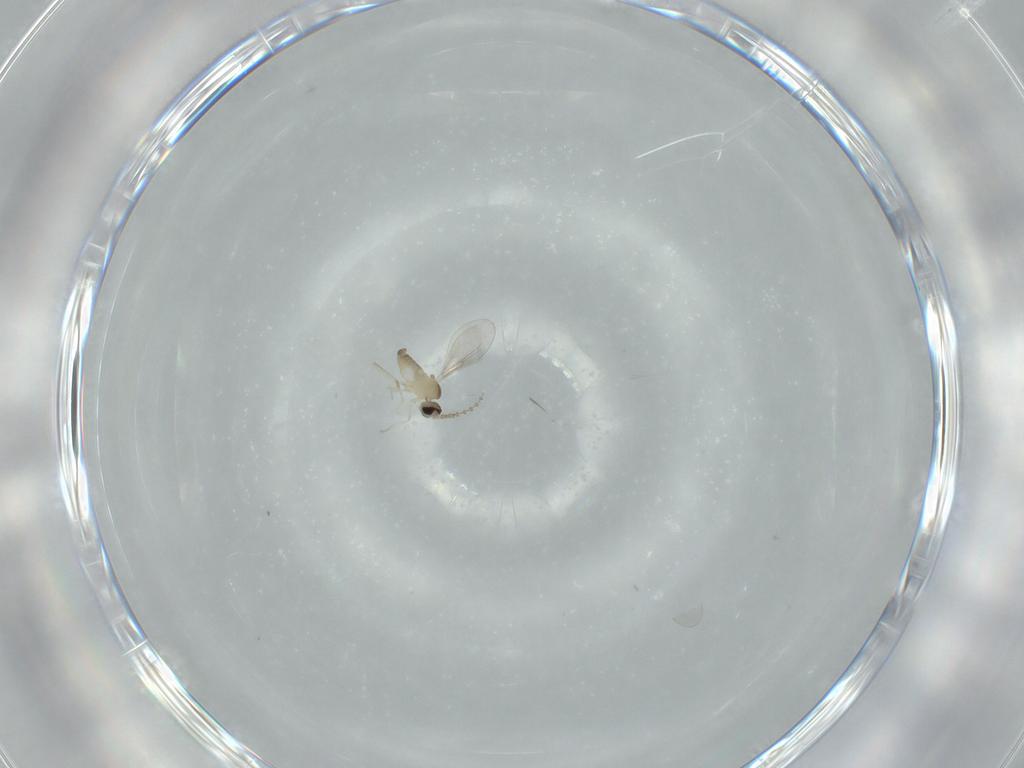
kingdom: Animalia
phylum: Arthropoda
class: Insecta
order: Diptera
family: Cecidomyiidae
